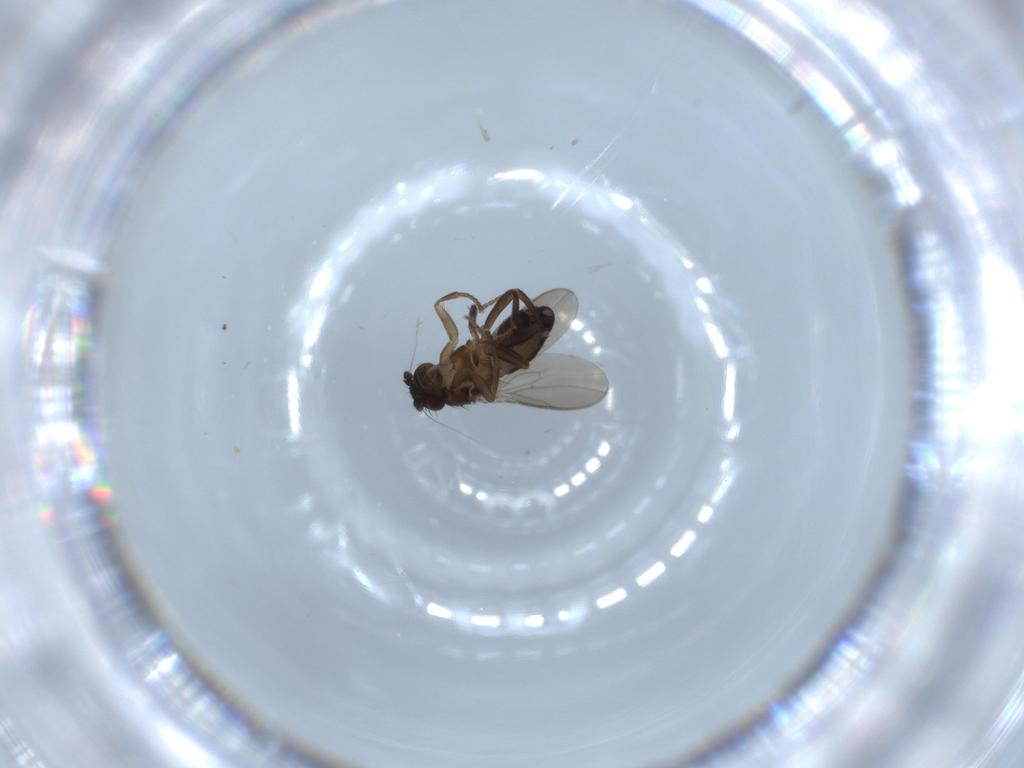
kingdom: Animalia
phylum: Arthropoda
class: Insecta
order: Diptera
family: Sphaeroceridae
